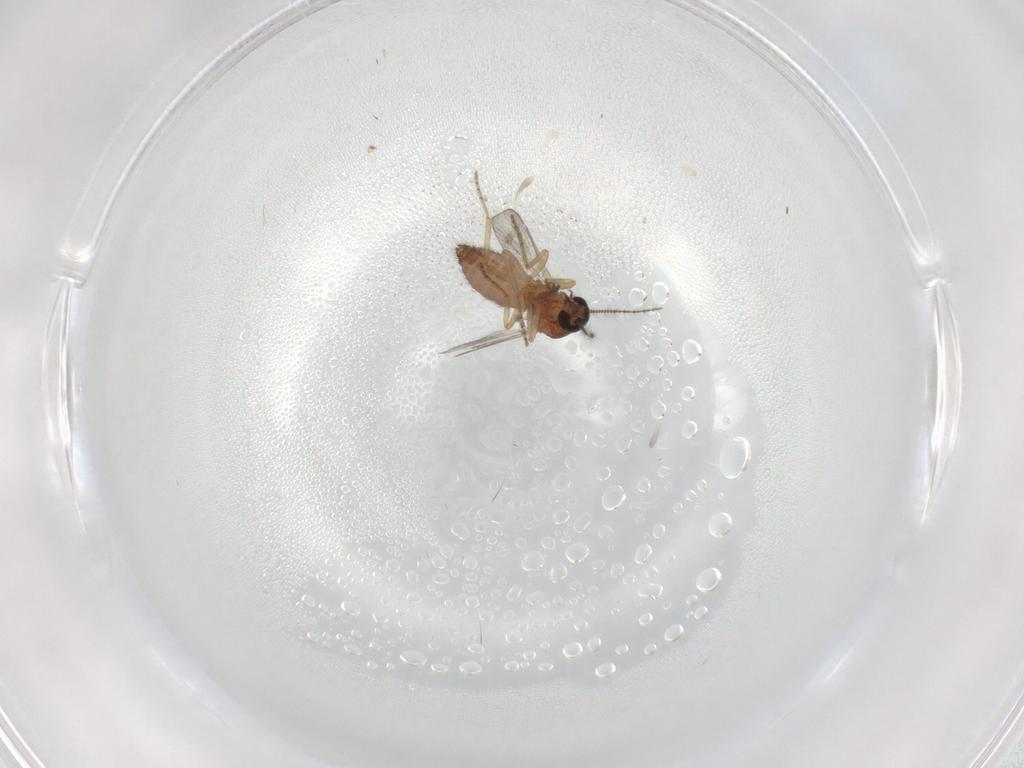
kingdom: Animalia
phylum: Arthropoda
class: Insecta
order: Diptera
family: Ceratopogonidae
